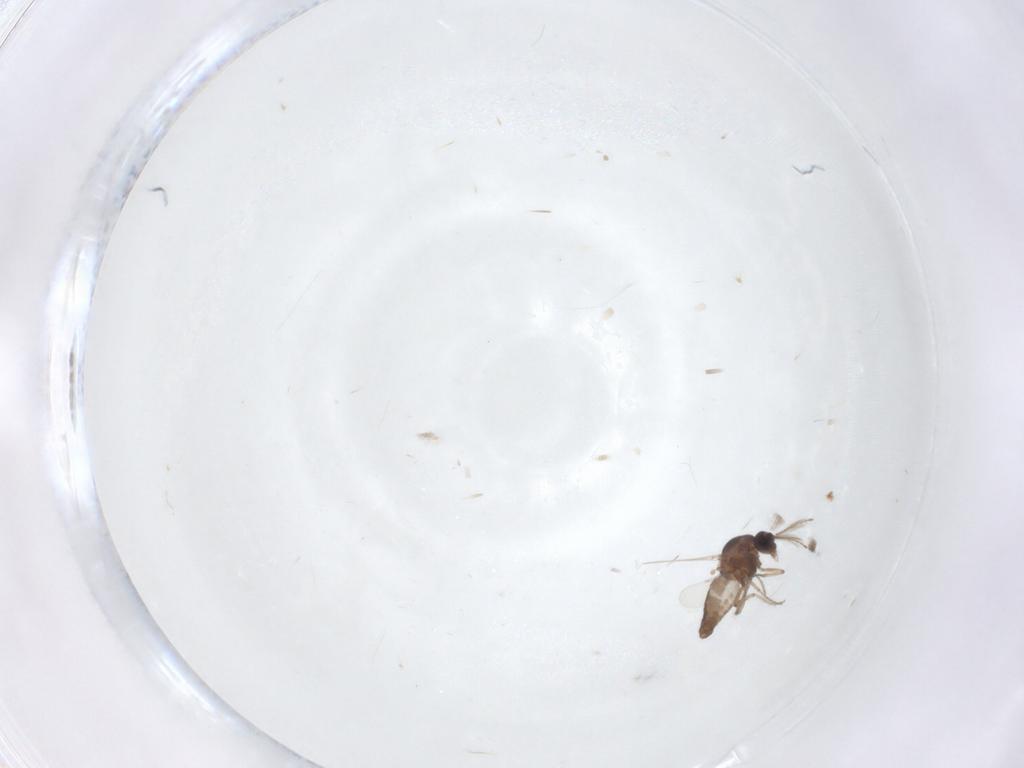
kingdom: Animalia
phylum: Arthropoda
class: Insecta
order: Diptera
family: Ceratopogonidae
